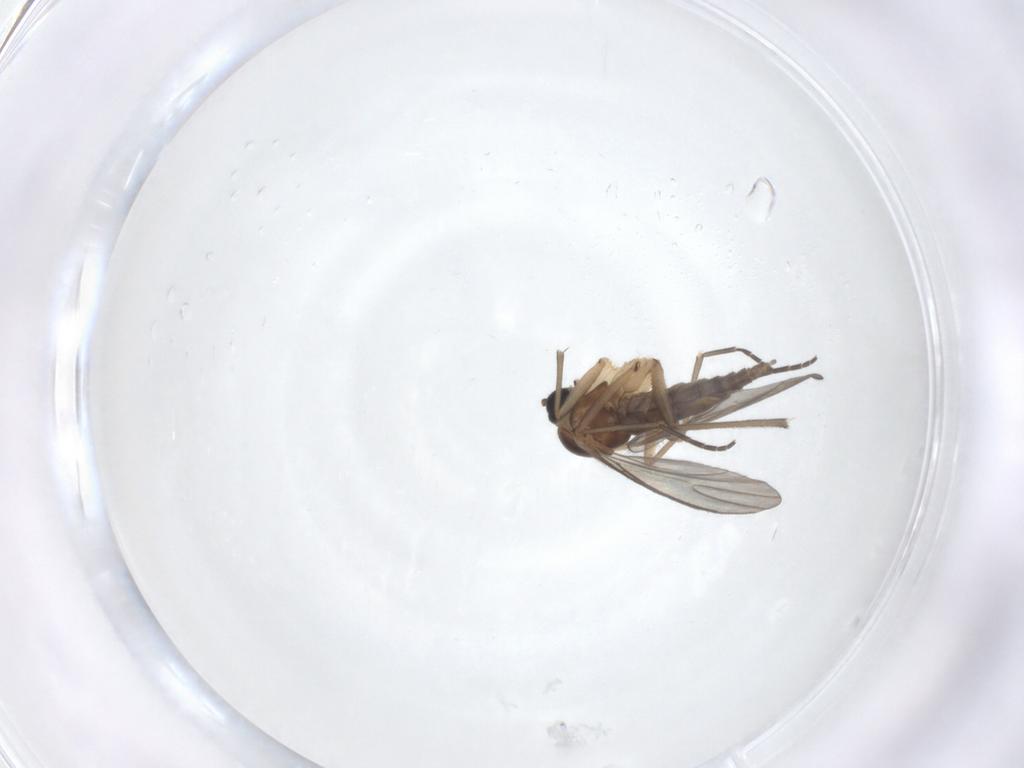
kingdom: Animalia
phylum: Arthropoda
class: Insecta
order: Diptera
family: Sciaridae
